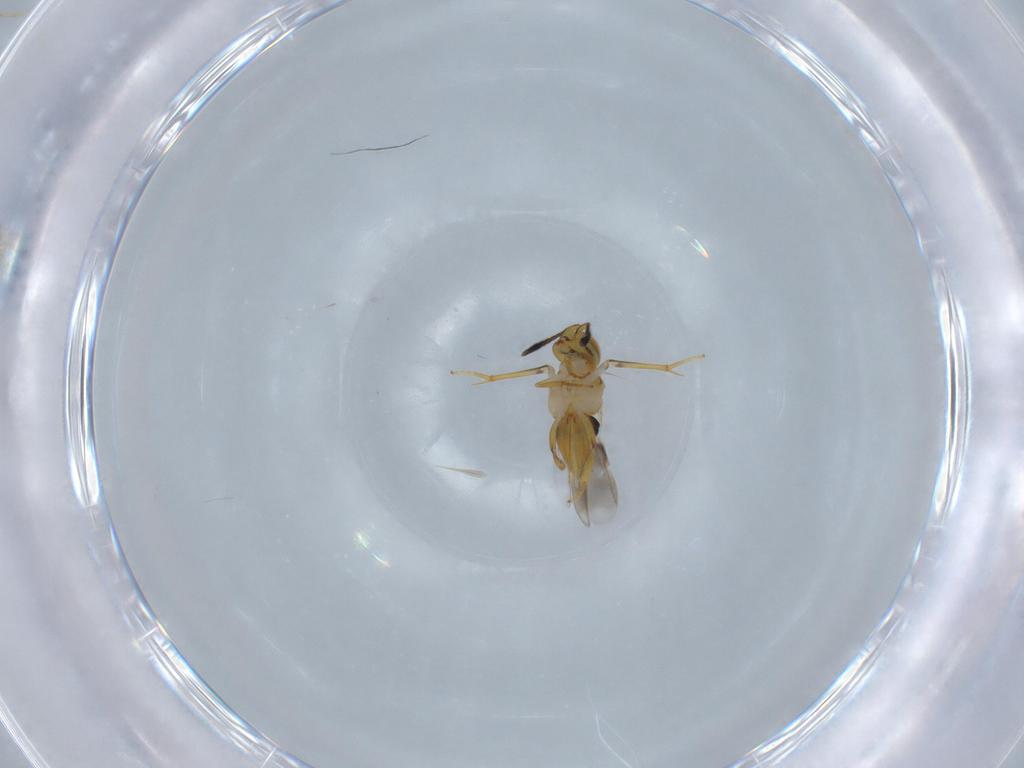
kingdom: Animalia
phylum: Arthropoda
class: Insecta
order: Hymenoptera
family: Encyrtidae
